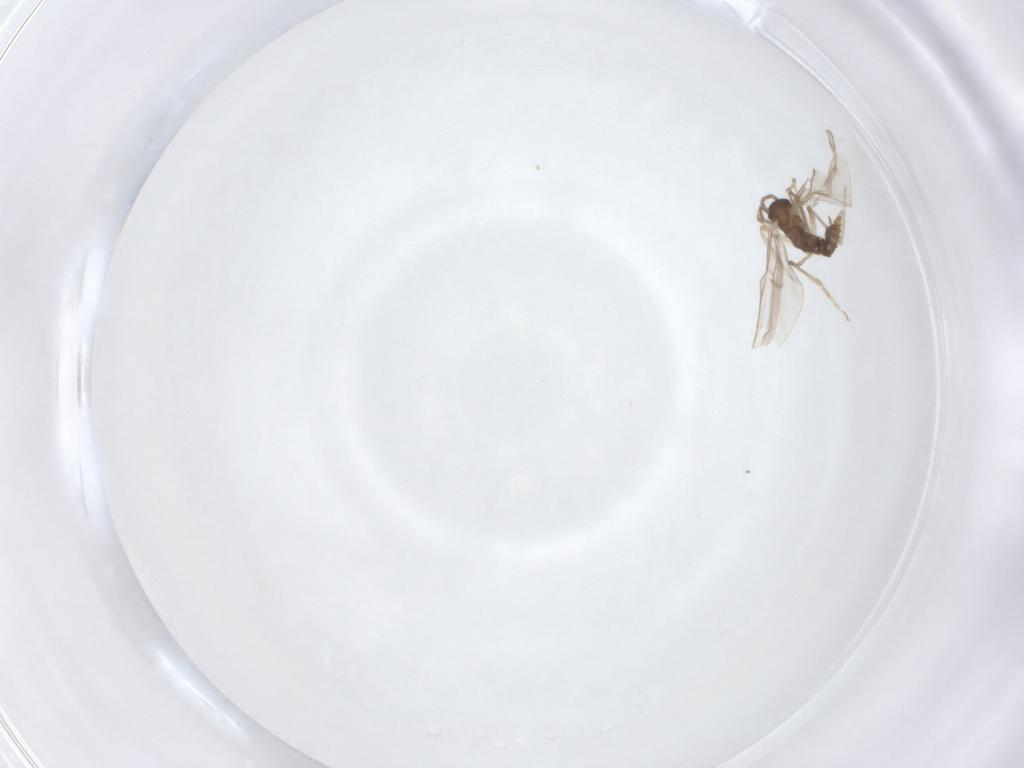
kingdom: Animalia
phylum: Arthropoda
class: Insecta
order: Diptera
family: Cecidomyiidae
